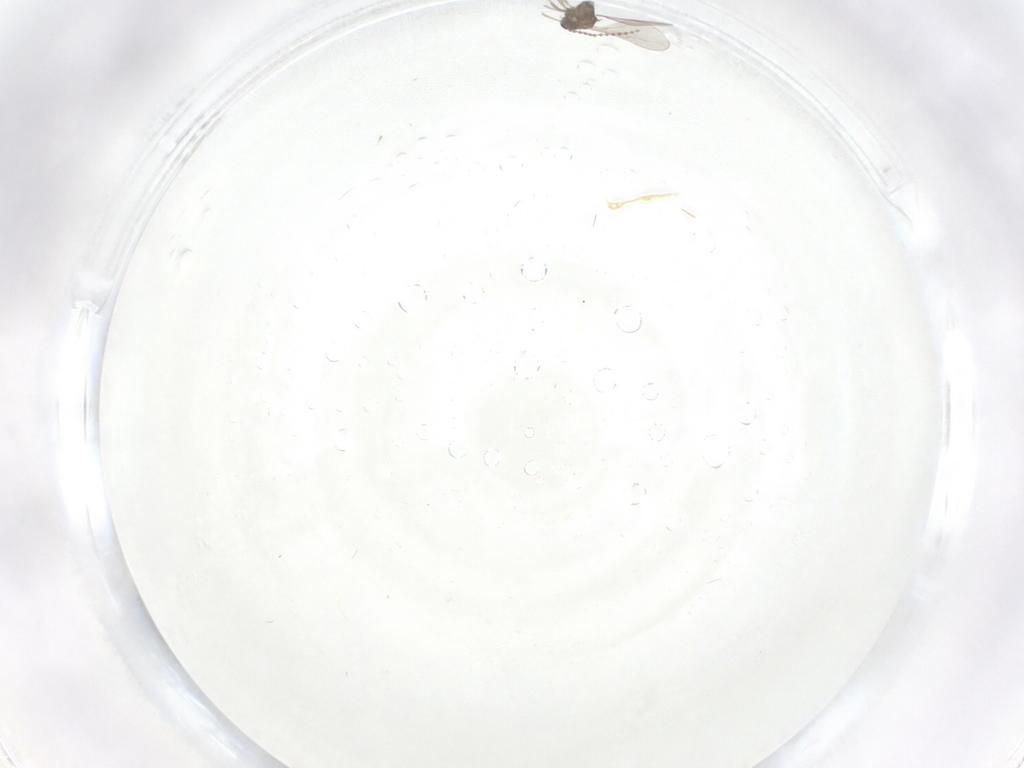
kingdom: Animalia
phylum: Arthropoda
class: Insecta
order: Diptera
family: Cecidomyiidae
